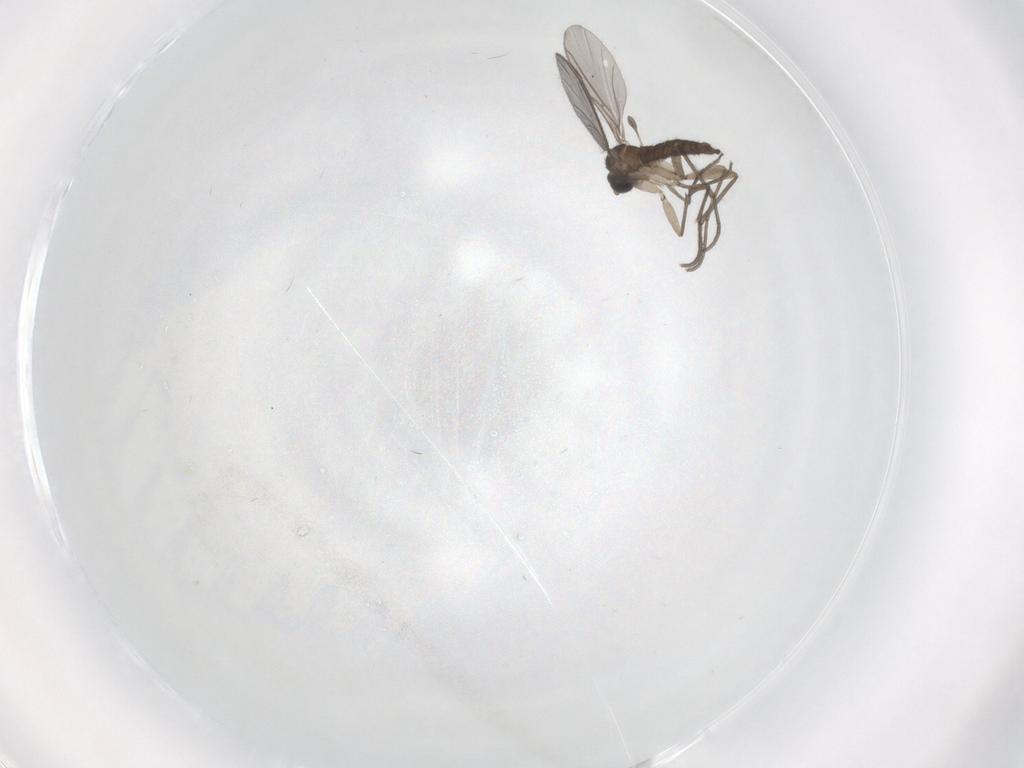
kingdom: Animalia
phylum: Arthropoda
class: Insecta
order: Diptera
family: Sciaridae
